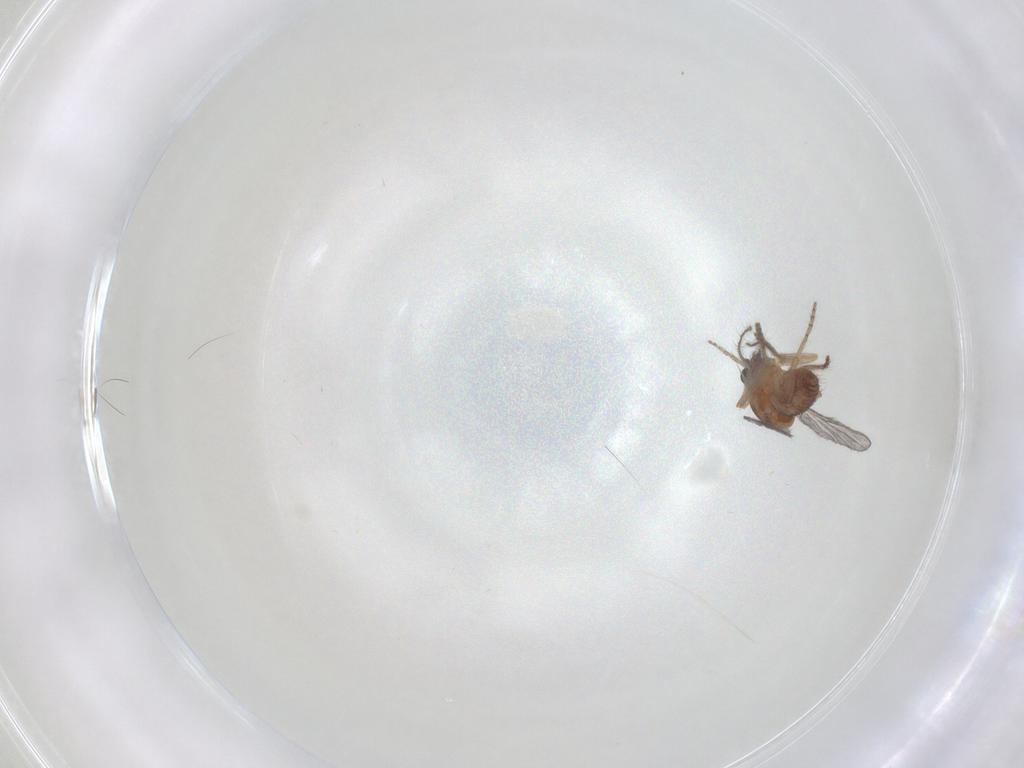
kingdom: Animalia
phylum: Arthropoda
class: Insecta
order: Diptera
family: Ceratopogonidae
